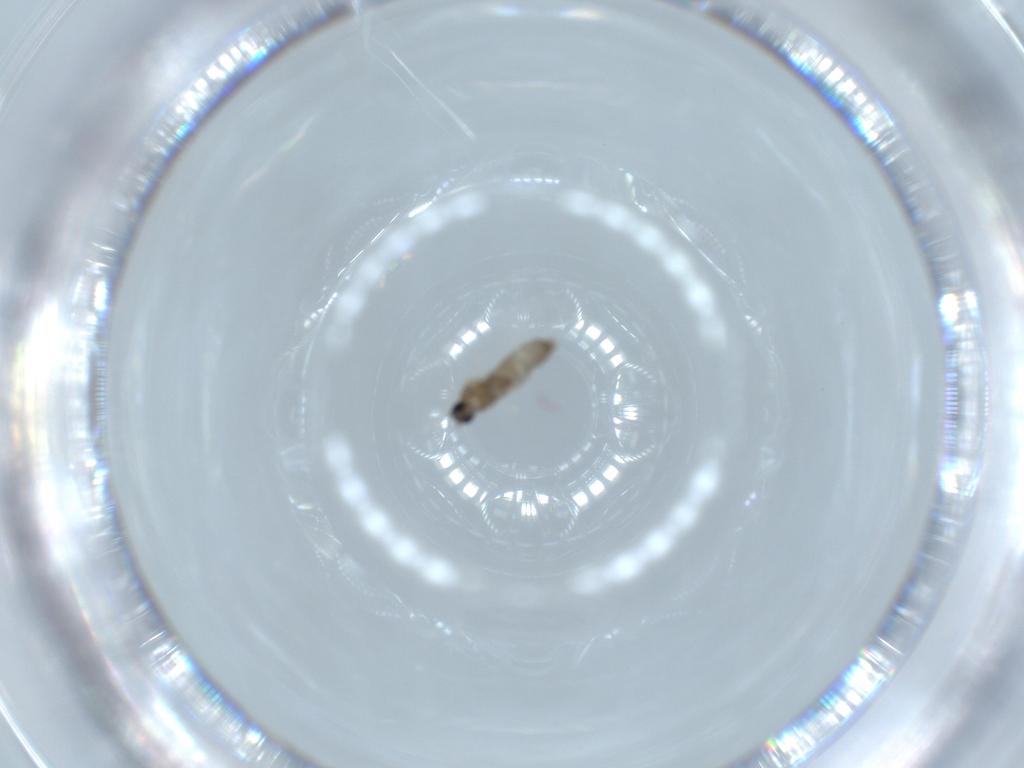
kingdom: Animalia
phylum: Arthropoda
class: Insecta
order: Diptera
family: Cecidomyiidae
